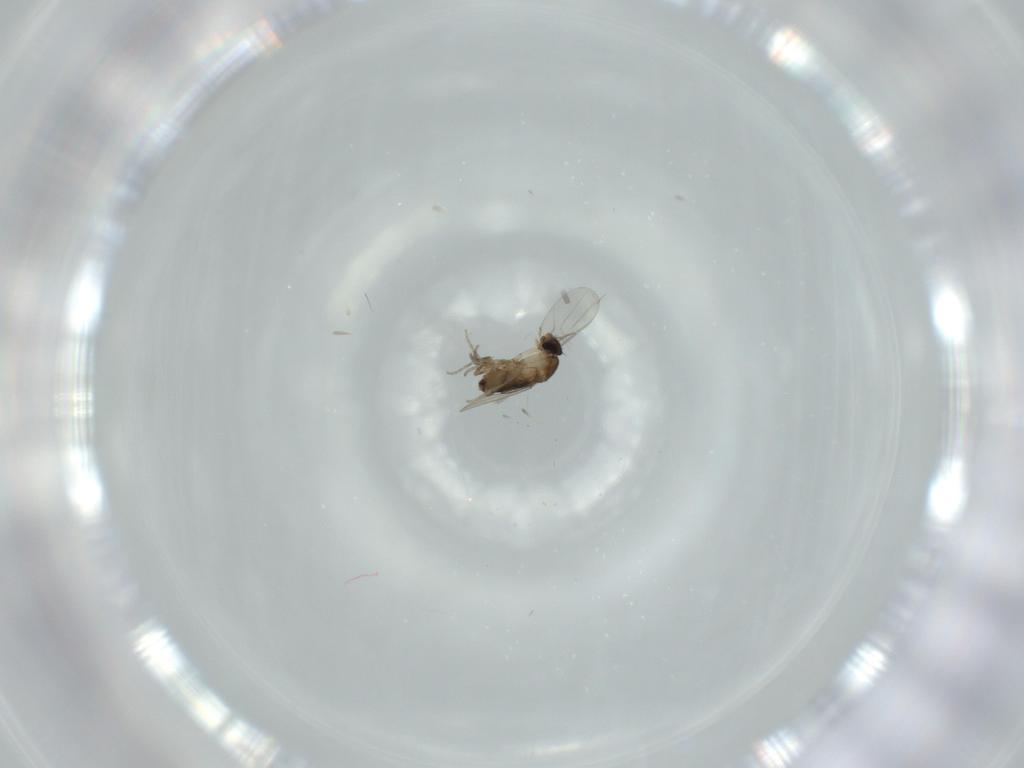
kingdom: Animalia
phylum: Arthropoda
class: Insecta
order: Diptera
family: Phoridae
